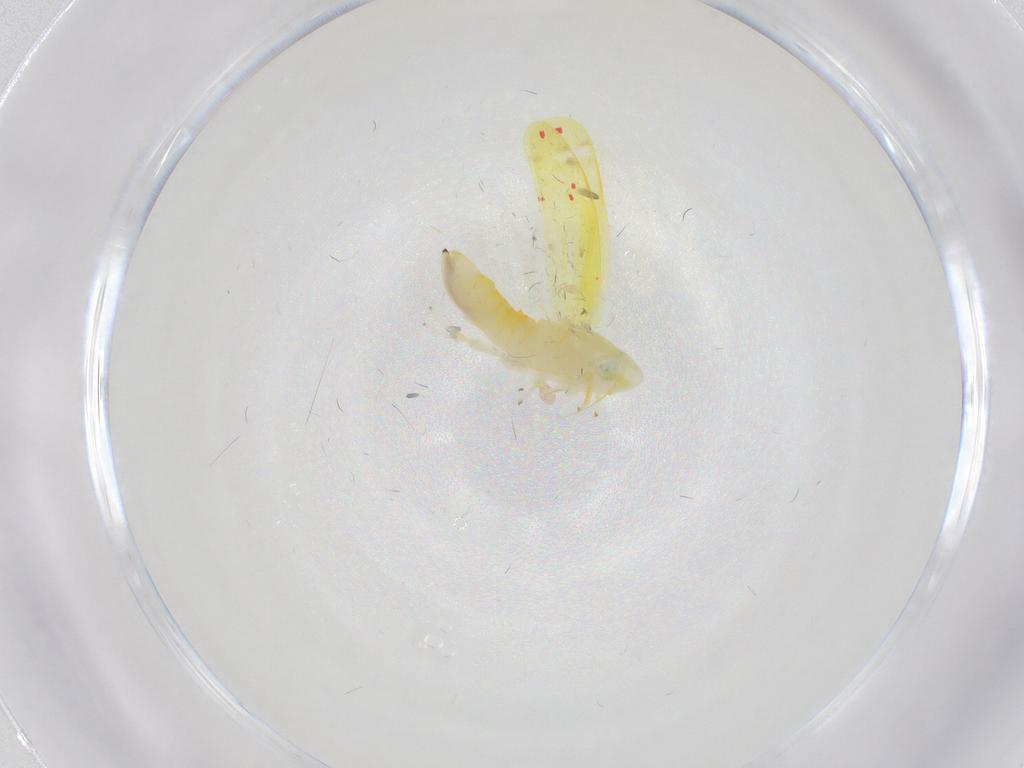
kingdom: Animalia
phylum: Arthropoda
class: Insecta
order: Hemiptera
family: Cicadellidae
